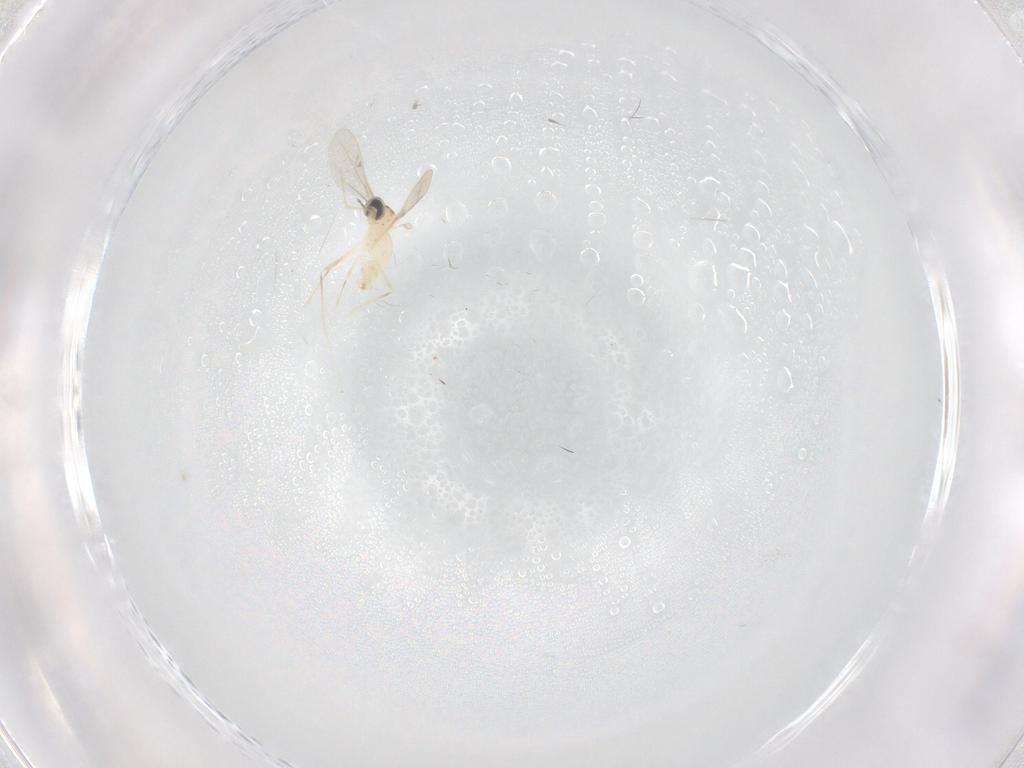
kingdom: Animalia
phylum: Arthropoda
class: Insecta
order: Diptera
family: Cecidomyiidae
